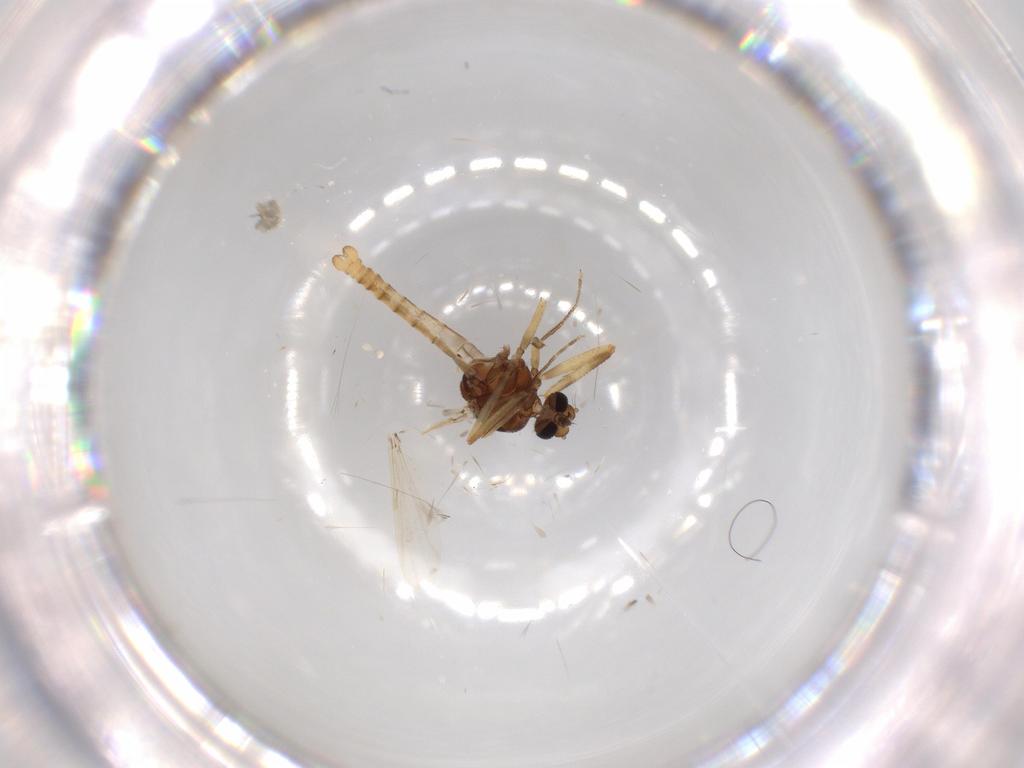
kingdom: Animalia
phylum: Arthropoda
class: Insecta
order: Diptera
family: Ceratopogonidae
